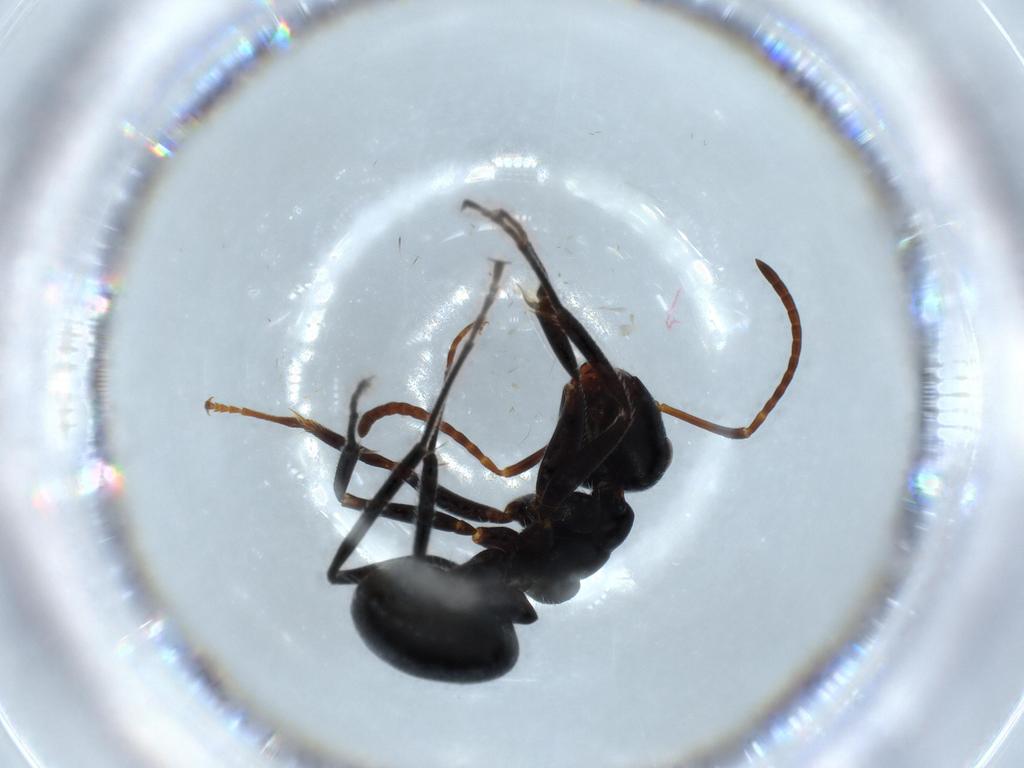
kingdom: Animalia
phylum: Arthropoda
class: Insecta
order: Hymenoptera
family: Formicidae
